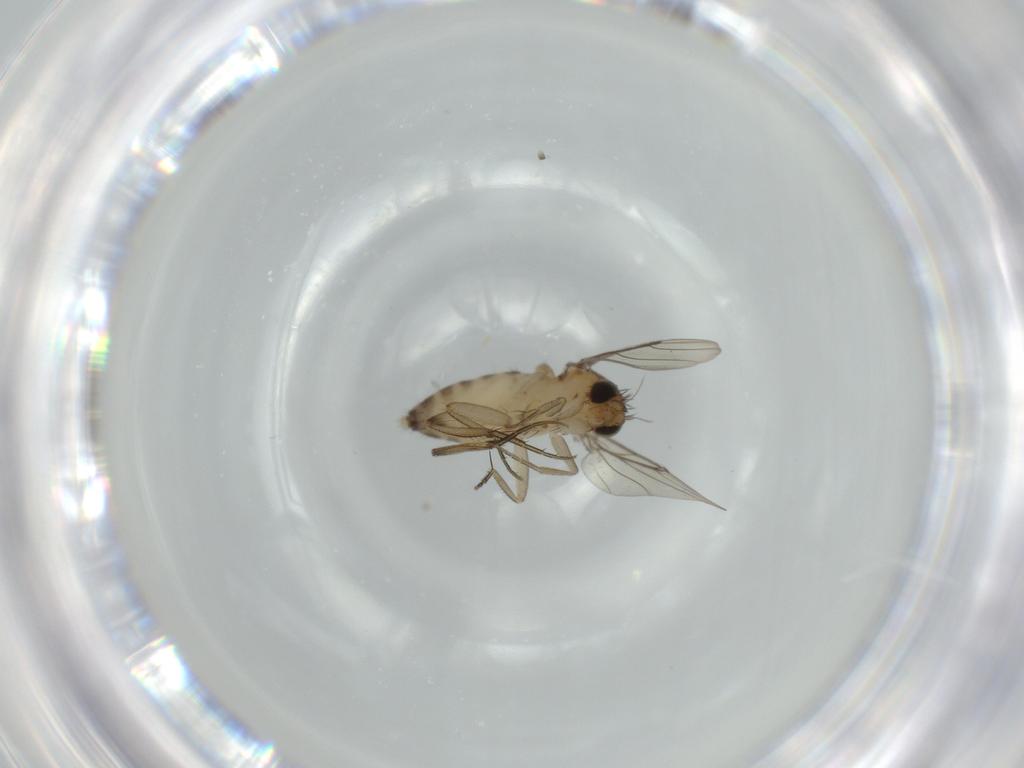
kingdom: Animalia
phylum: Arthropoda
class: Insecta
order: Diptera
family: Phoridae
